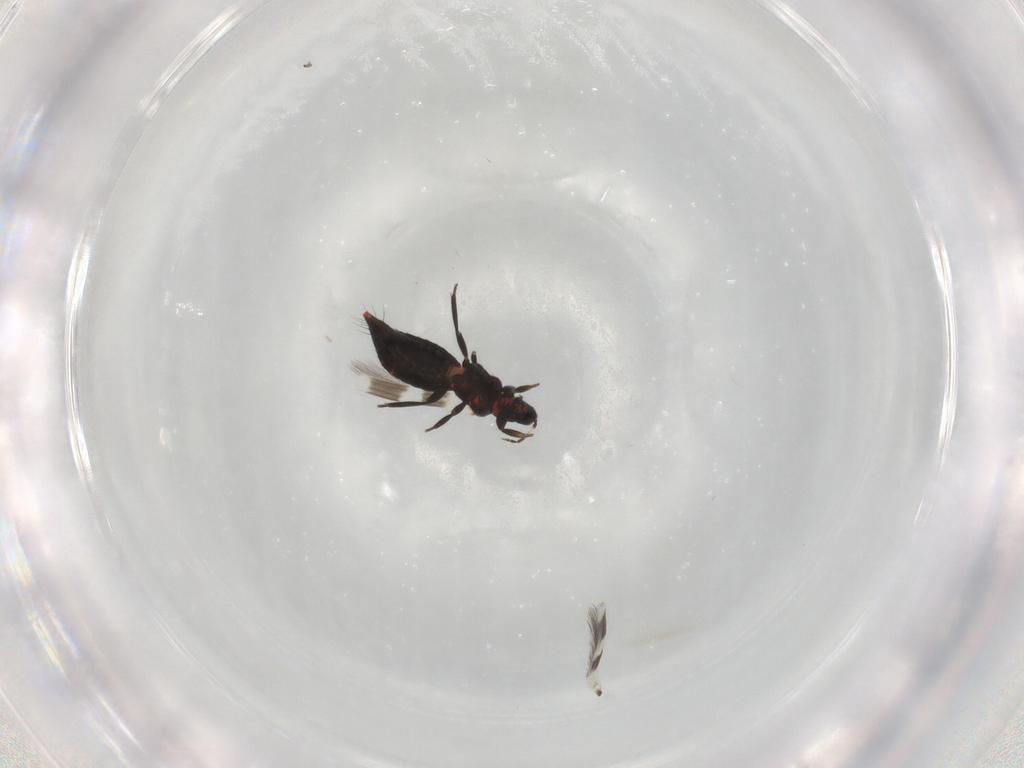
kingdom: Animalia
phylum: Arthropoda
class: Insecta
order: Thysanoptera
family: Aeolothripidae
